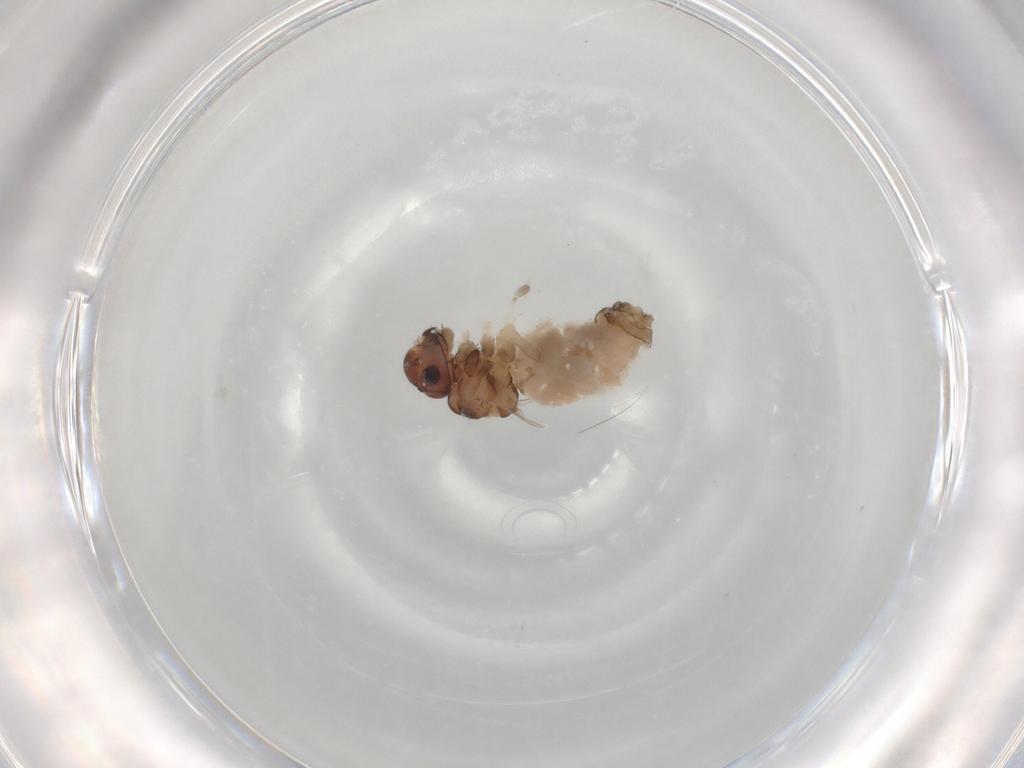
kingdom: Animalia
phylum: Arthropoda
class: Insecta
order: Psocodea
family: Peripsocidae
